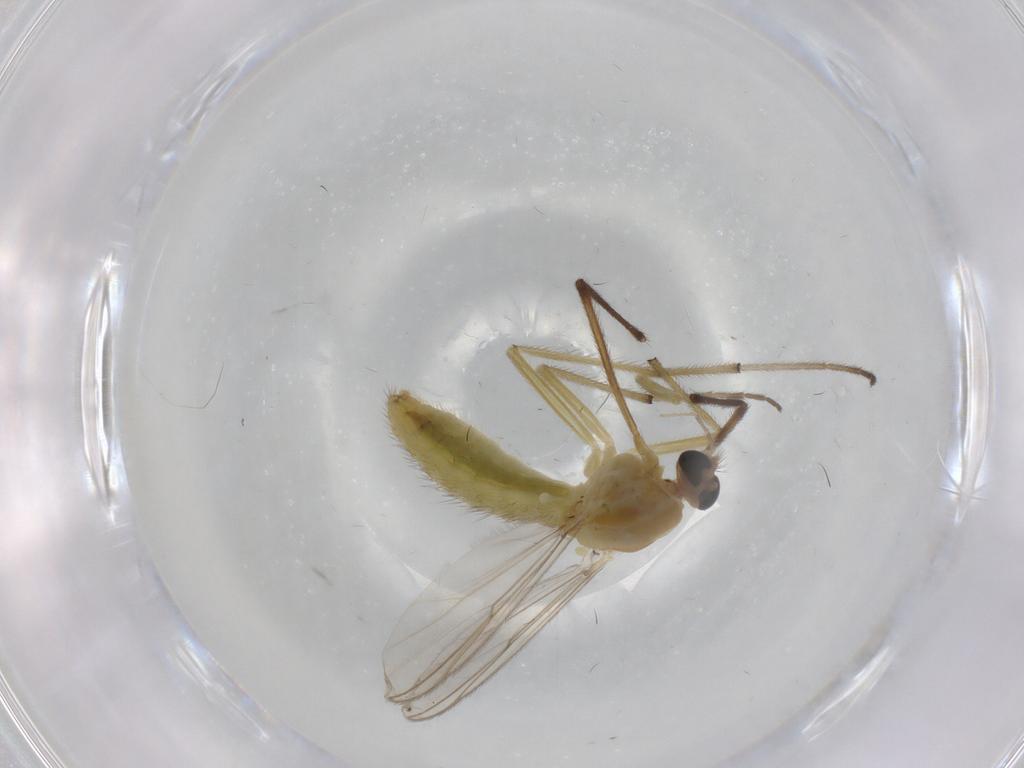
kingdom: Animalia
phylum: Arthropoda
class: Insecta
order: Diptera
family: Chironomidae
